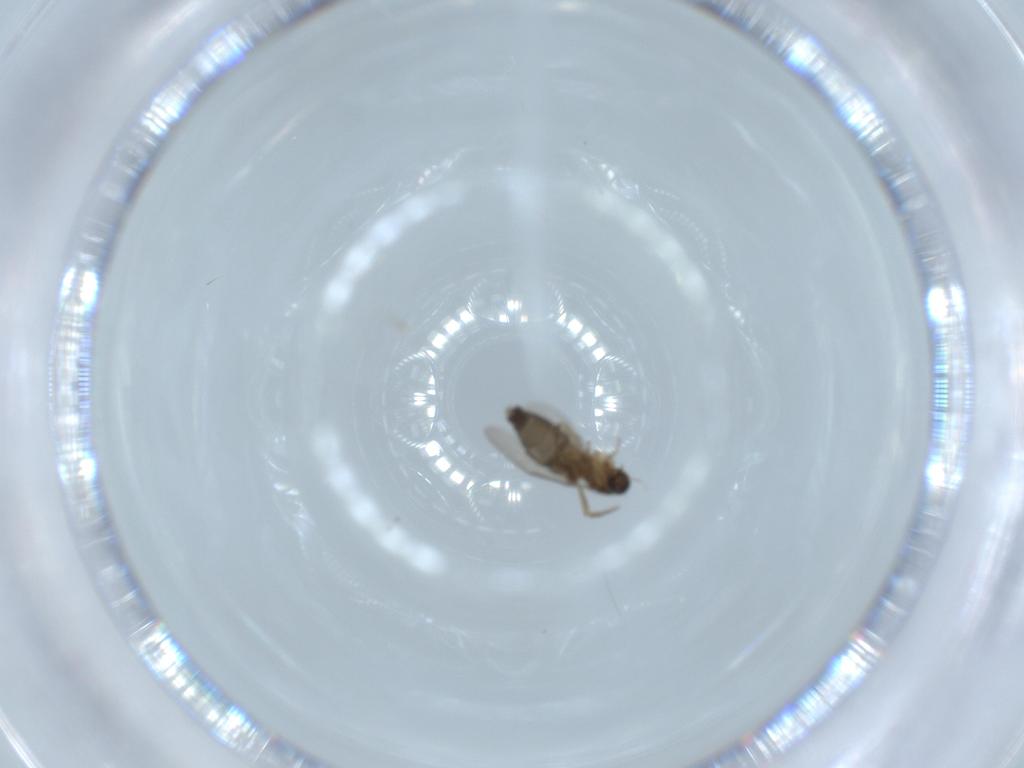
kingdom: Animalia
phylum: Arthropoda
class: Insecta
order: Diptera
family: Phoridae
